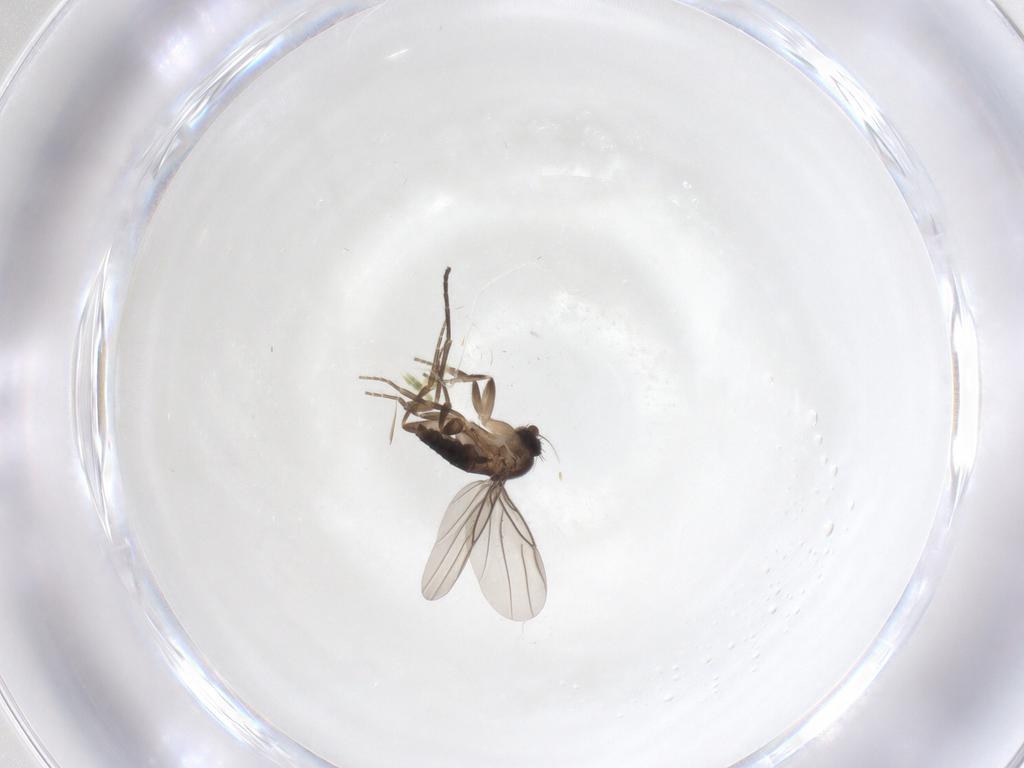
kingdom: Animalia
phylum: Arthropoda
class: Insecta
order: Diptera
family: Sciaridae
